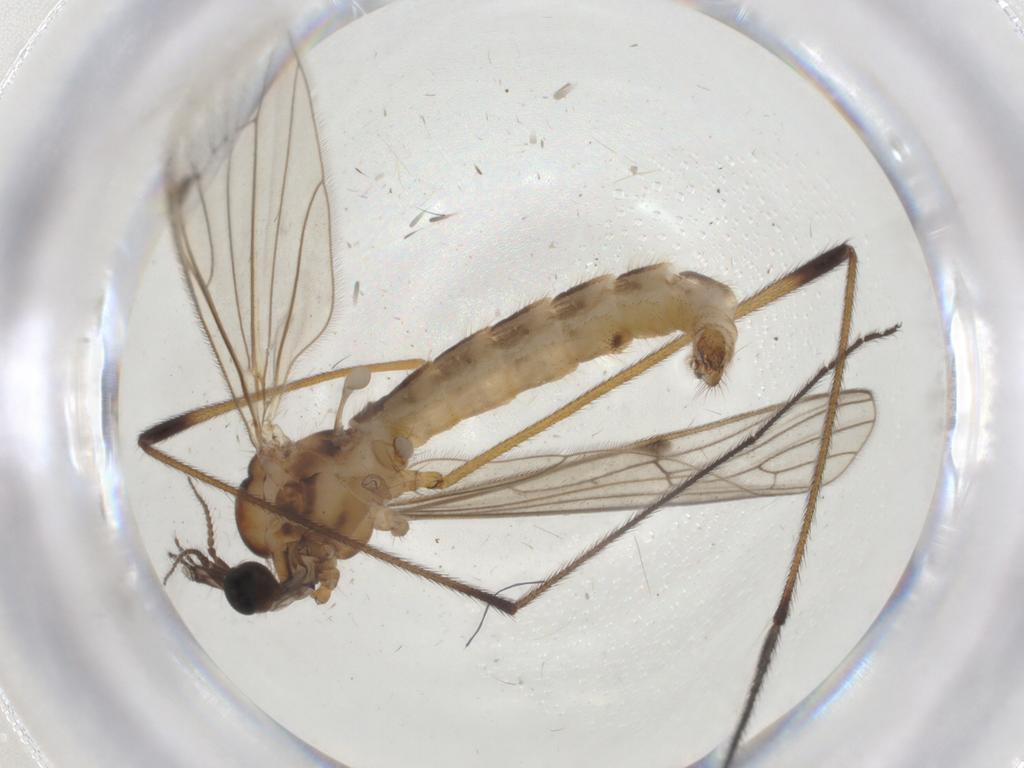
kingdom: Animalia
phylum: Arthropoda
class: Insecta
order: Diptera
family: Limoniidae
